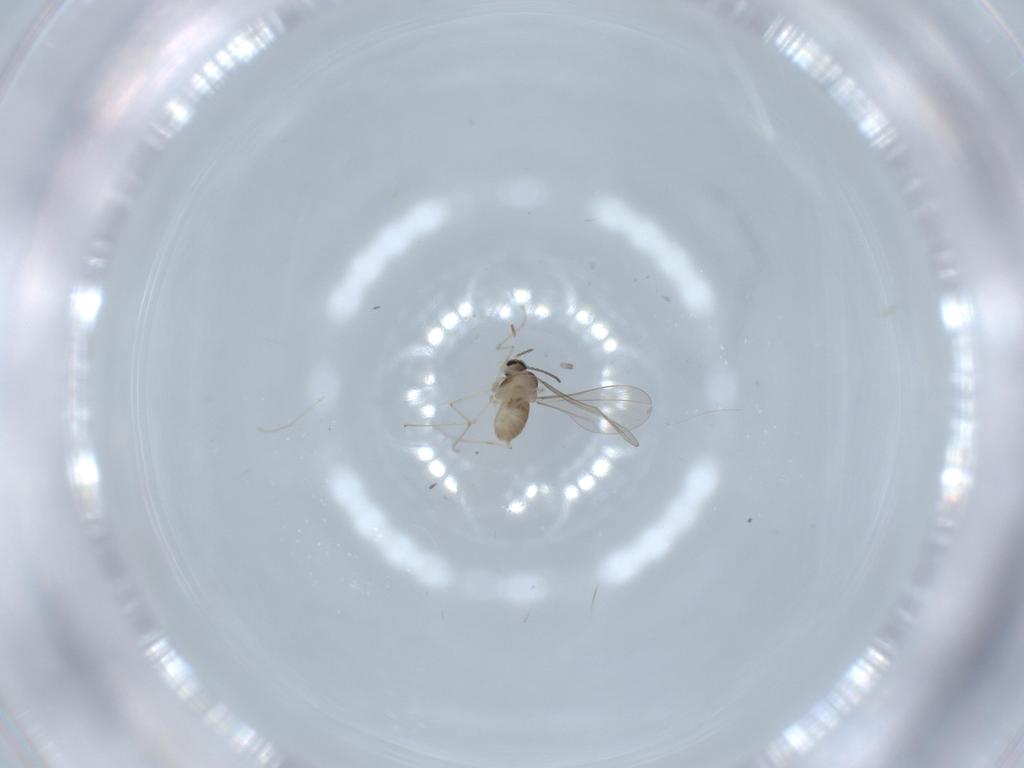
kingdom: Animalia
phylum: Arthropoda
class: Insecta
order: Diptera
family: Cecidomyiidae
